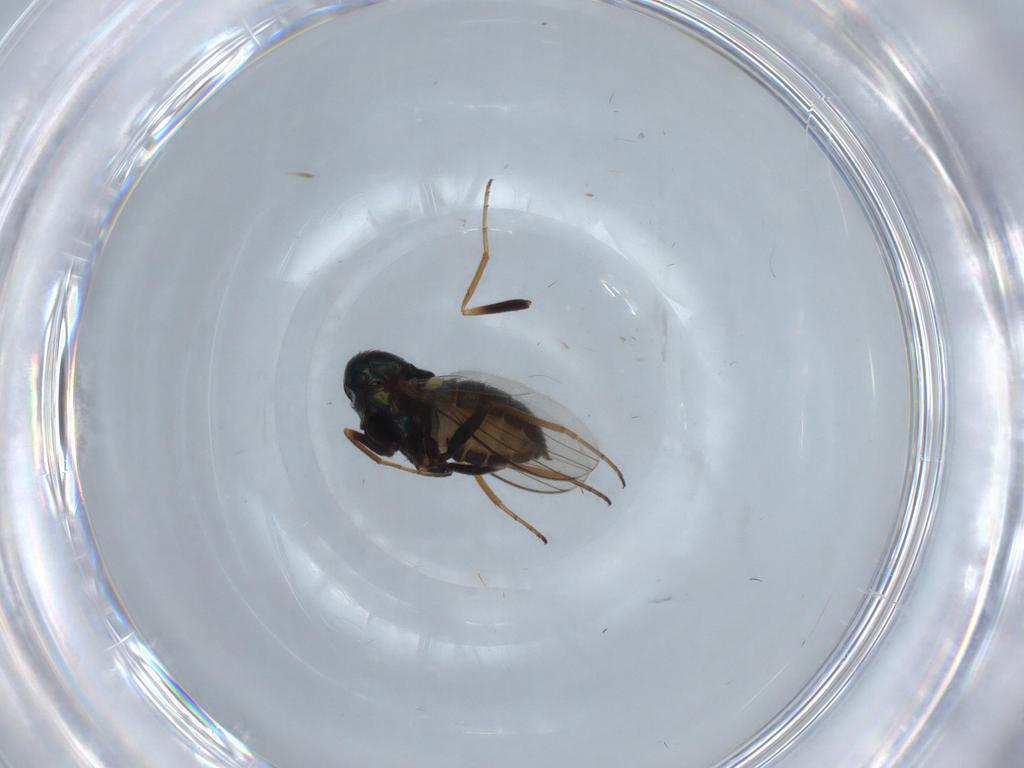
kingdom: Animalia
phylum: Arthropoda
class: Insecta
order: Diptera
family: Dolichopodidae
